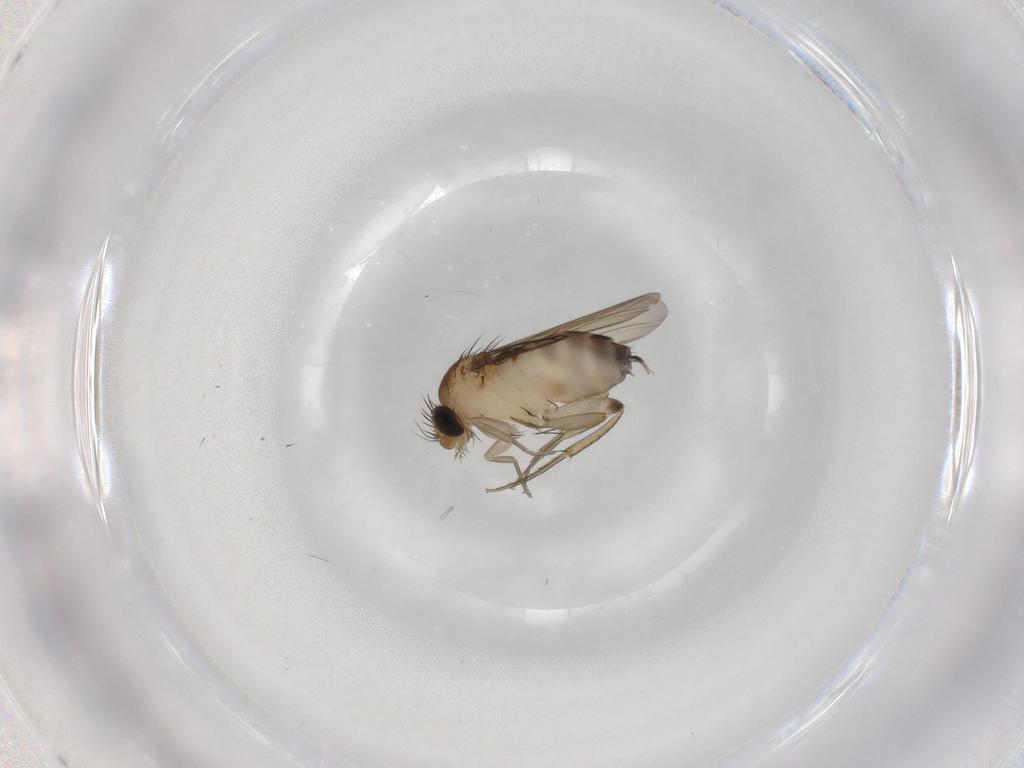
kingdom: Animalia
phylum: Arthropoda
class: Insecta
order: Diptera
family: Phoridae
